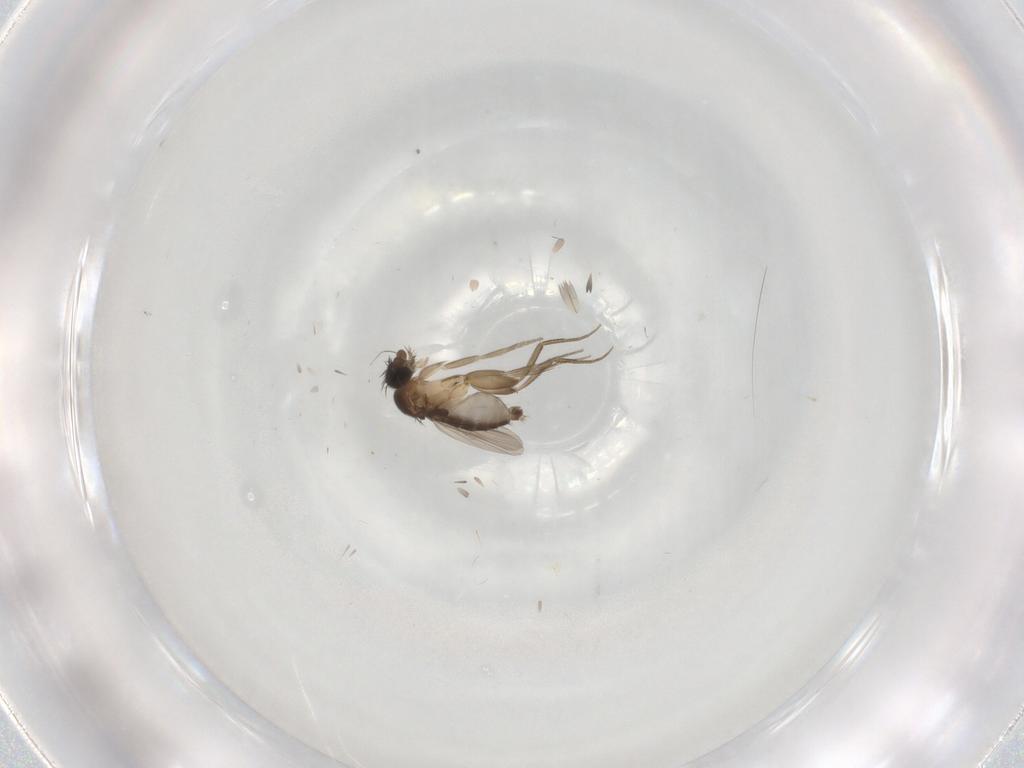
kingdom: Animalia
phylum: Arthropoda
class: Insecta
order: Diptera
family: Phoridae
